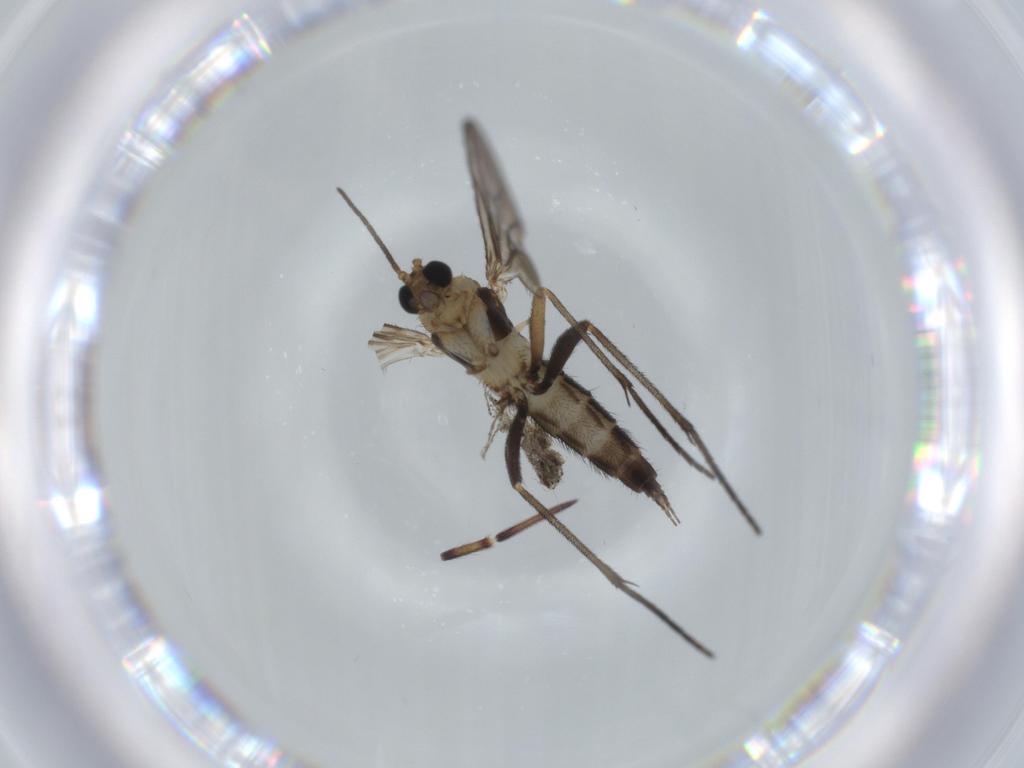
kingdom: Animalia
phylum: Arthropoda
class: Insecta
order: Diptera
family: Sciaridae
